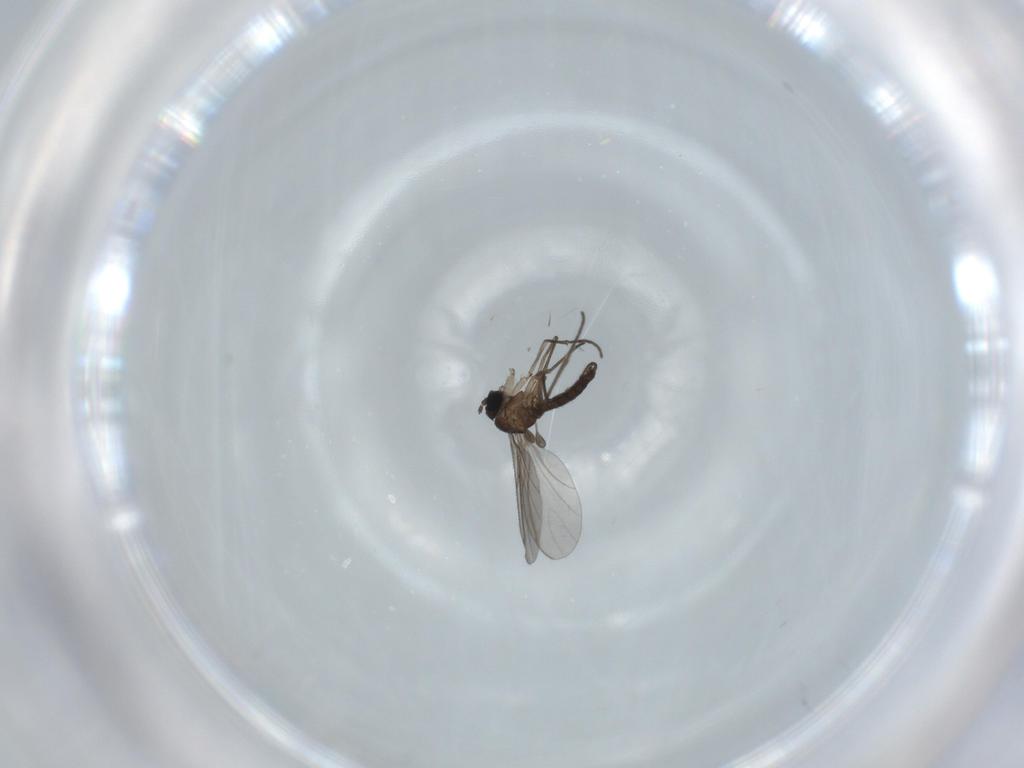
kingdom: Animalia
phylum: Arthropoda
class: Insecta
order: Diptera
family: Sciaridae
